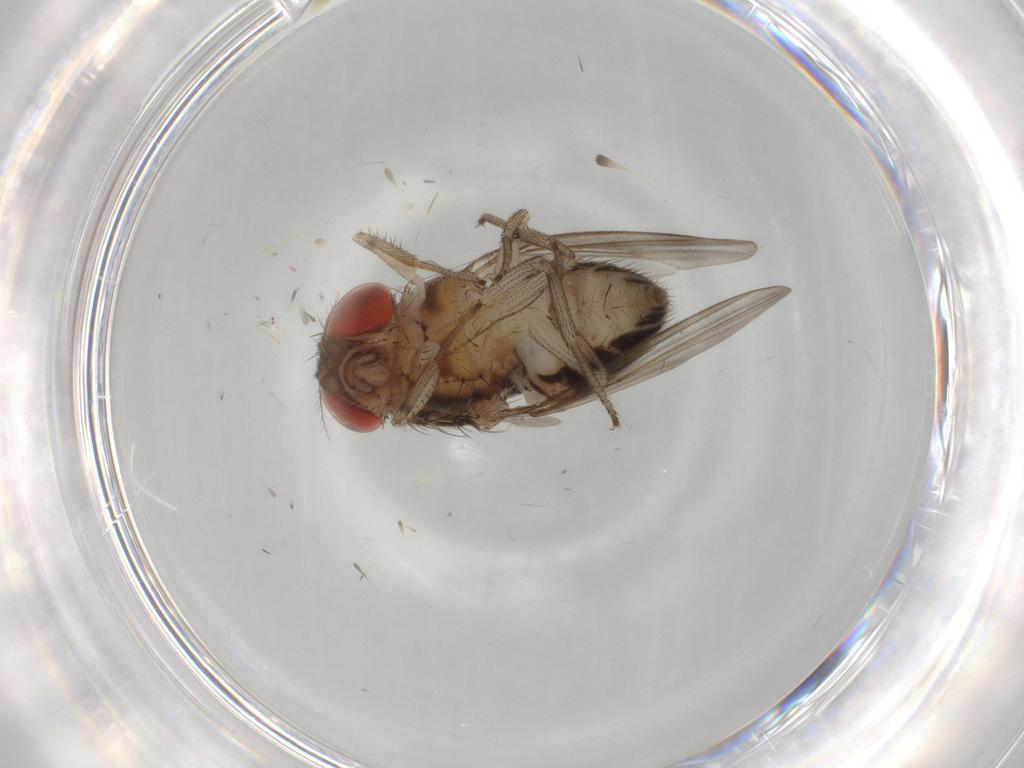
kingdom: Animalia
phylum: Arthropoda
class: Insecta
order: Diptera
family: Drosophilidae
